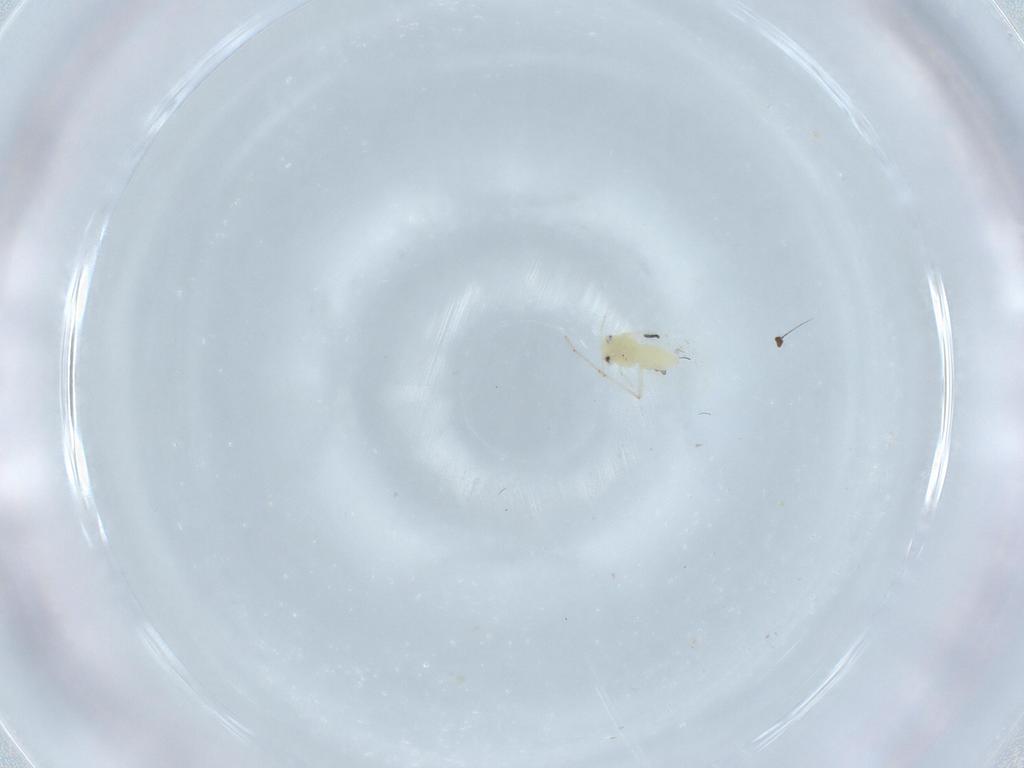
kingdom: Animalia
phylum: Arthropoda
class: Insecta
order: Hemiptera
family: Aleyrodidae
